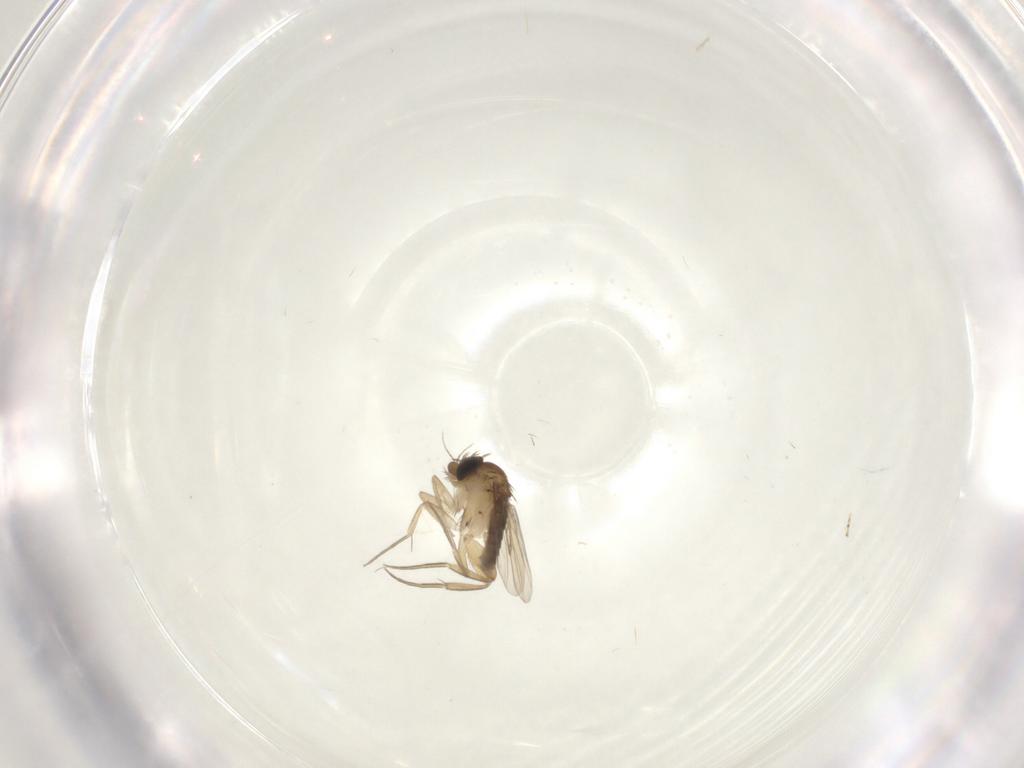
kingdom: Animalia
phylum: Arthropoda
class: Insecta
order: Diptera
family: Phoridae
